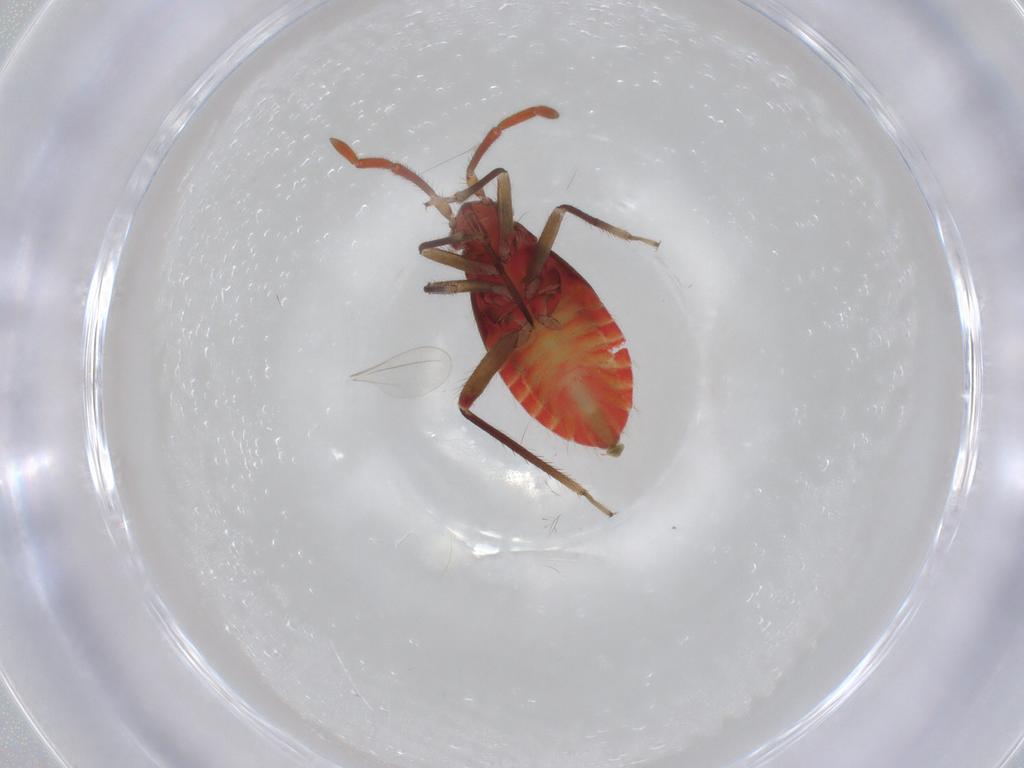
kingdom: Animalia
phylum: Arthropoda
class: Insecta
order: Hemiptera
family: Miridae
